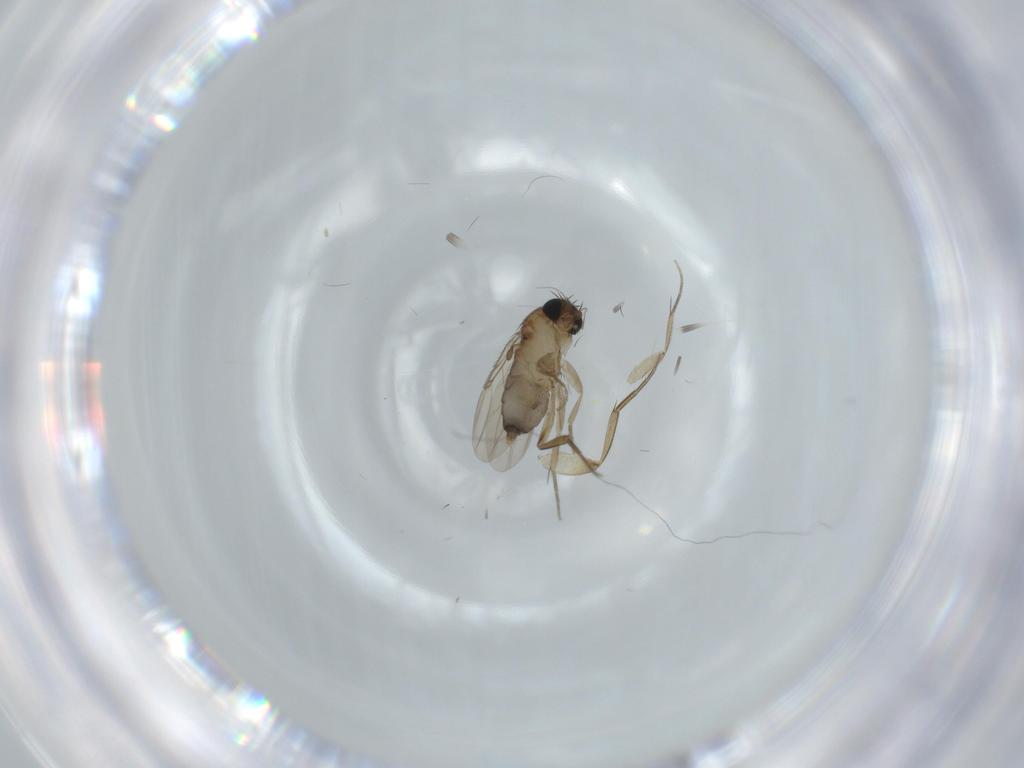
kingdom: Animalia
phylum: Arthropoda
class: Insecta
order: Diptera
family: Phoridae
